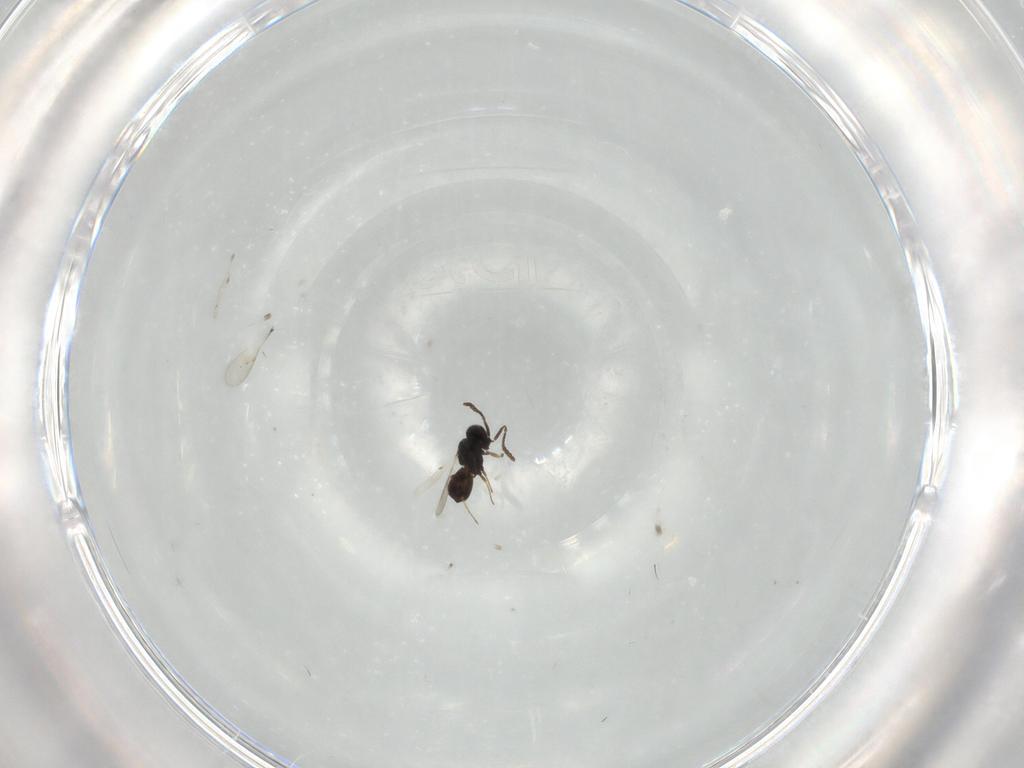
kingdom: Animalia
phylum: Arthropoda
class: Insecta
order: Hymenoptera
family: Scelionidae
